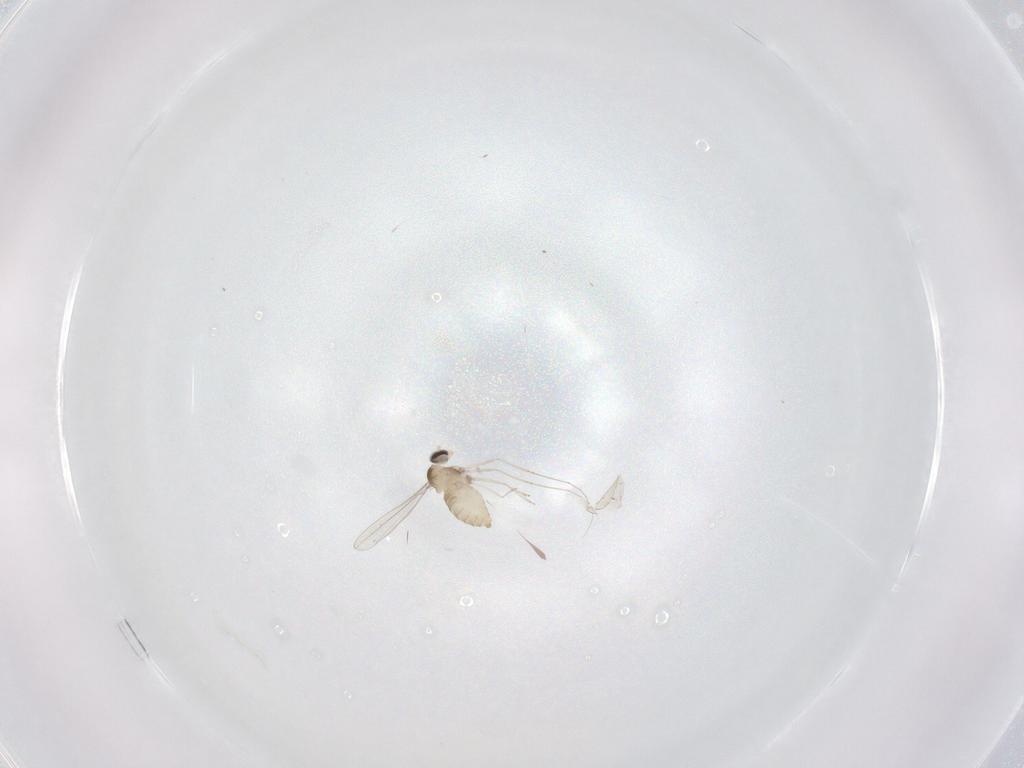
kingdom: Animalia
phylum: Arthropoda
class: Insecta
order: Diptera
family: Cecidomyiidae
